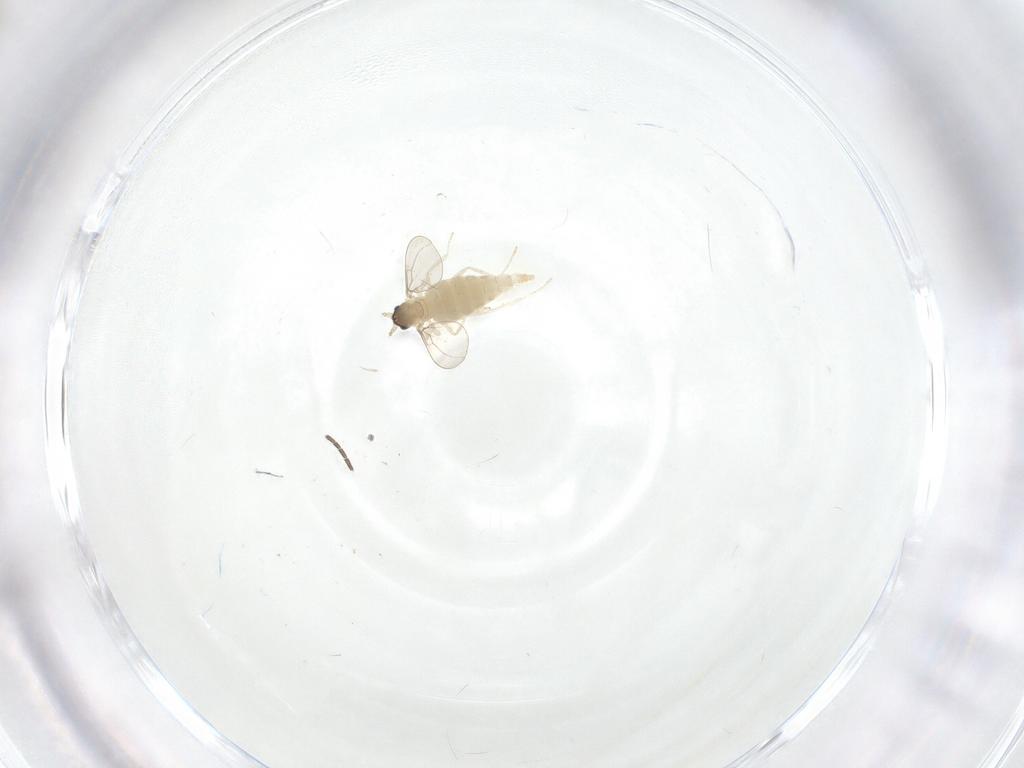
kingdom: Animalia
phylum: Arthropoda
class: Insecta
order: Diptera
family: Cecidomyiidae
